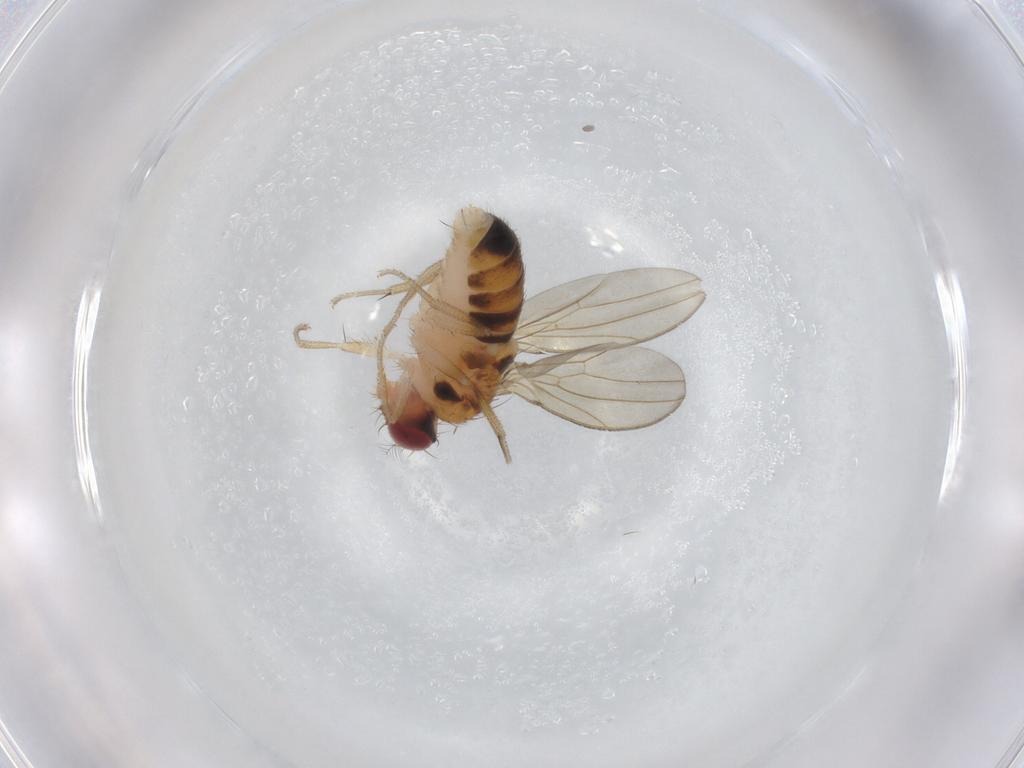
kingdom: Animalia
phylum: Arthropoda
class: Insecta
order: Diptera
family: Drosophilidae
